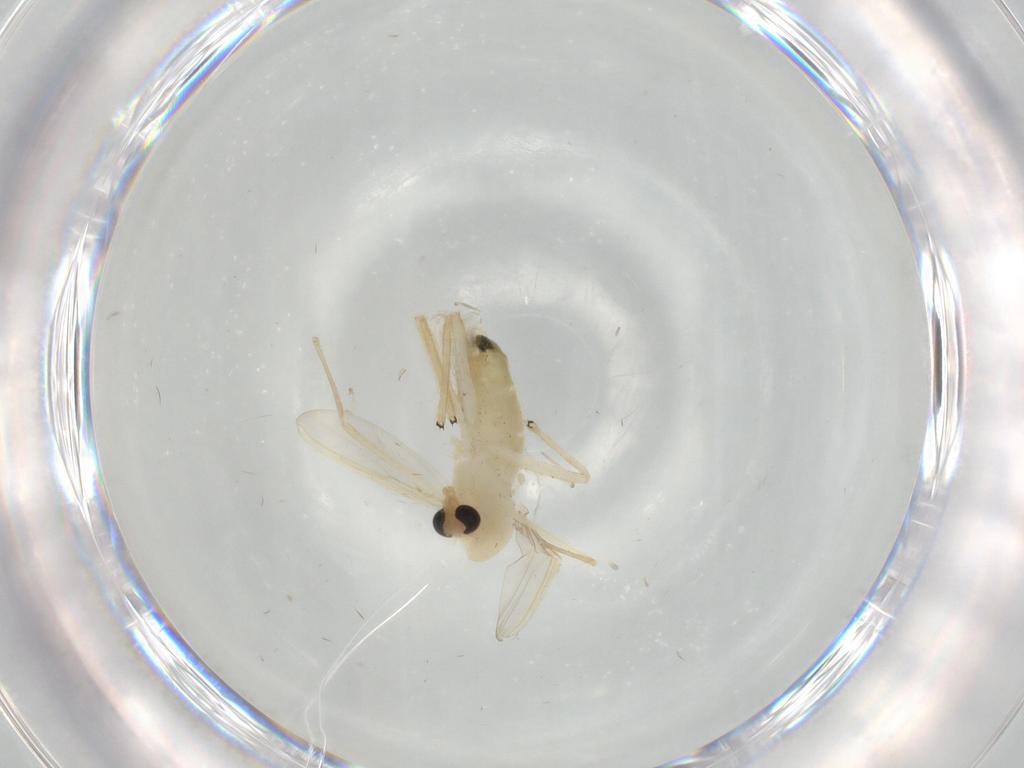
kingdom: Animalia
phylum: Arthropoda
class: Insecta
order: Diptera
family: Chironomidae
